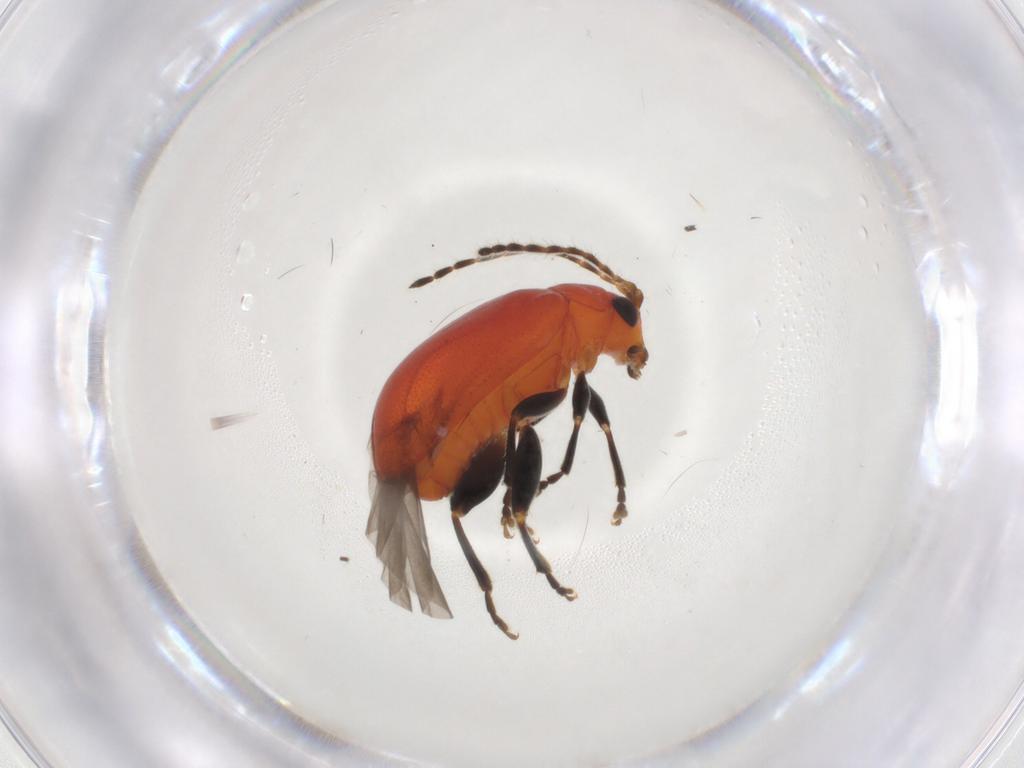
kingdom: Animalia
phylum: Arthropoda
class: Insecta
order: Coleoptera
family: Chrysomelidae
